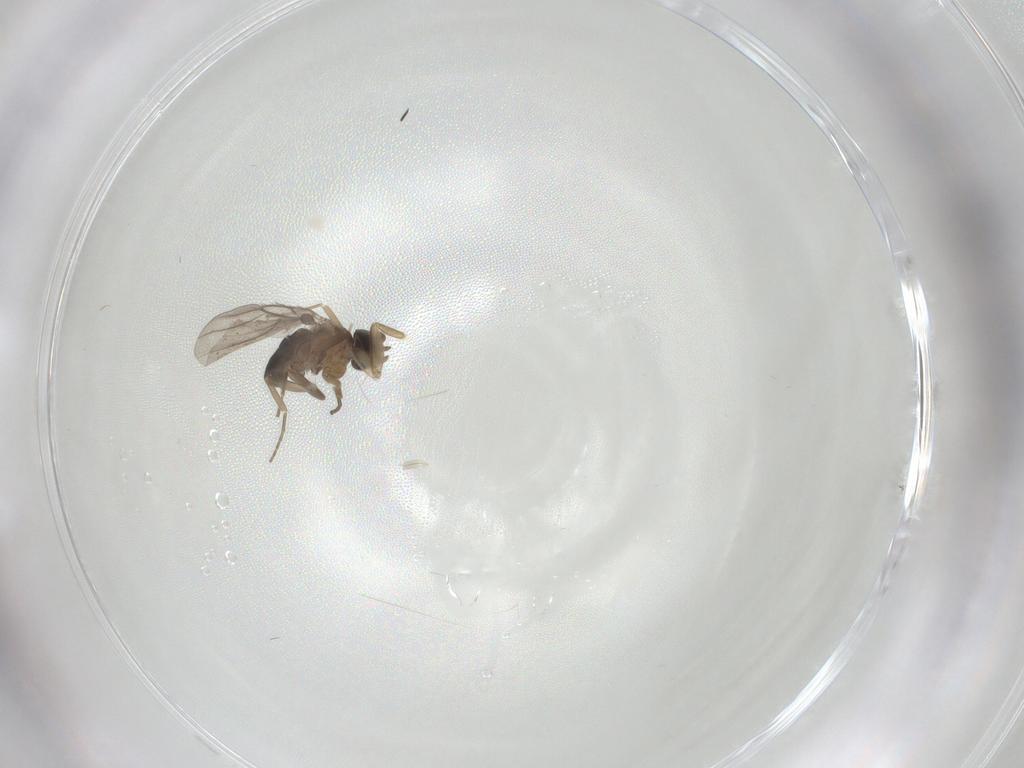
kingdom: Animalia
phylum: Arthropoda
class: Insecta
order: Diptera
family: Chironomidae
